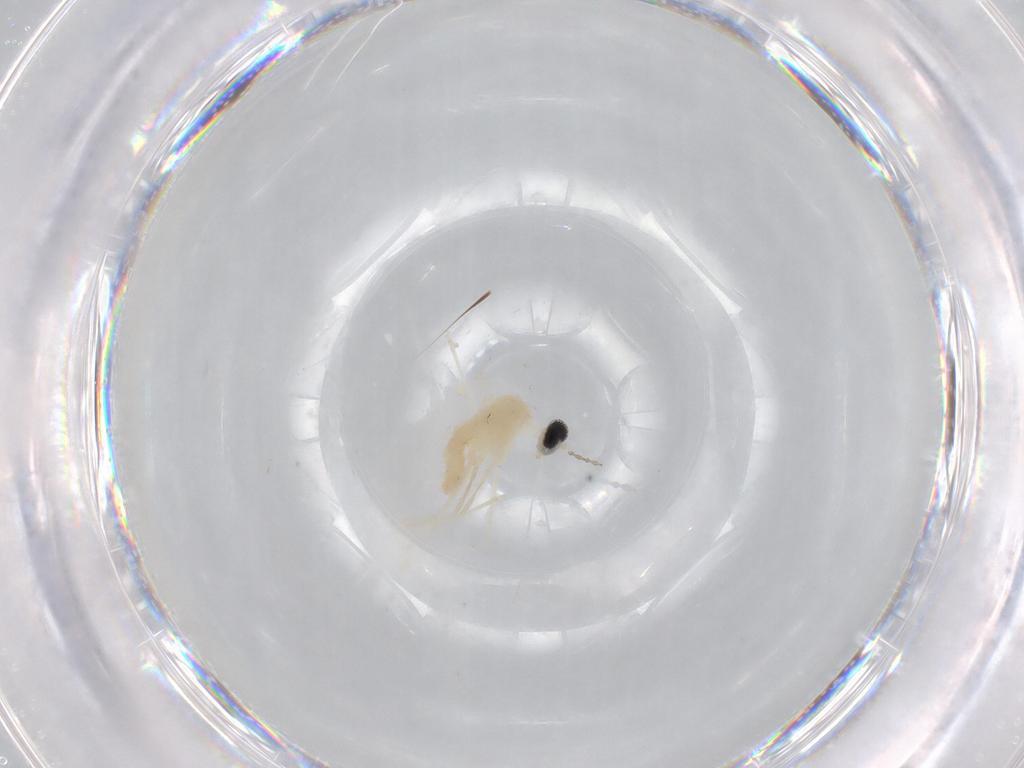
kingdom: Animalia
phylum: Arthropoda
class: Insecta
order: Diptera
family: Cecidomyiidae
